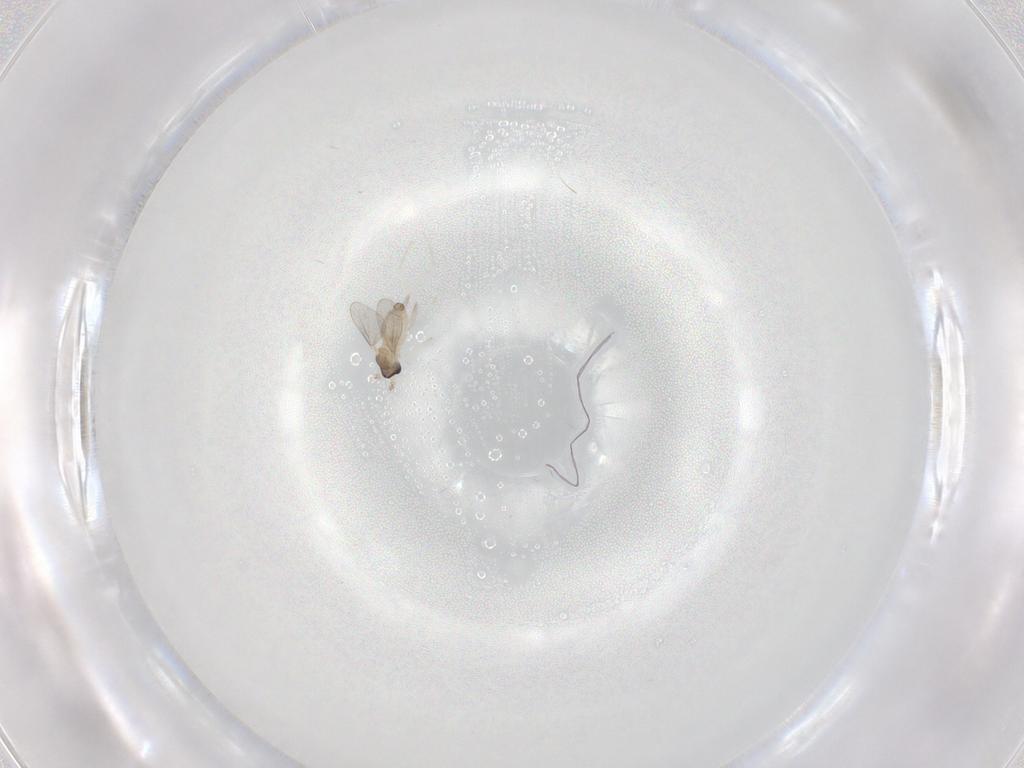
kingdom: Animalia
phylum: Arthropoda
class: Insecta
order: Diptera
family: Cecidomyiidae
